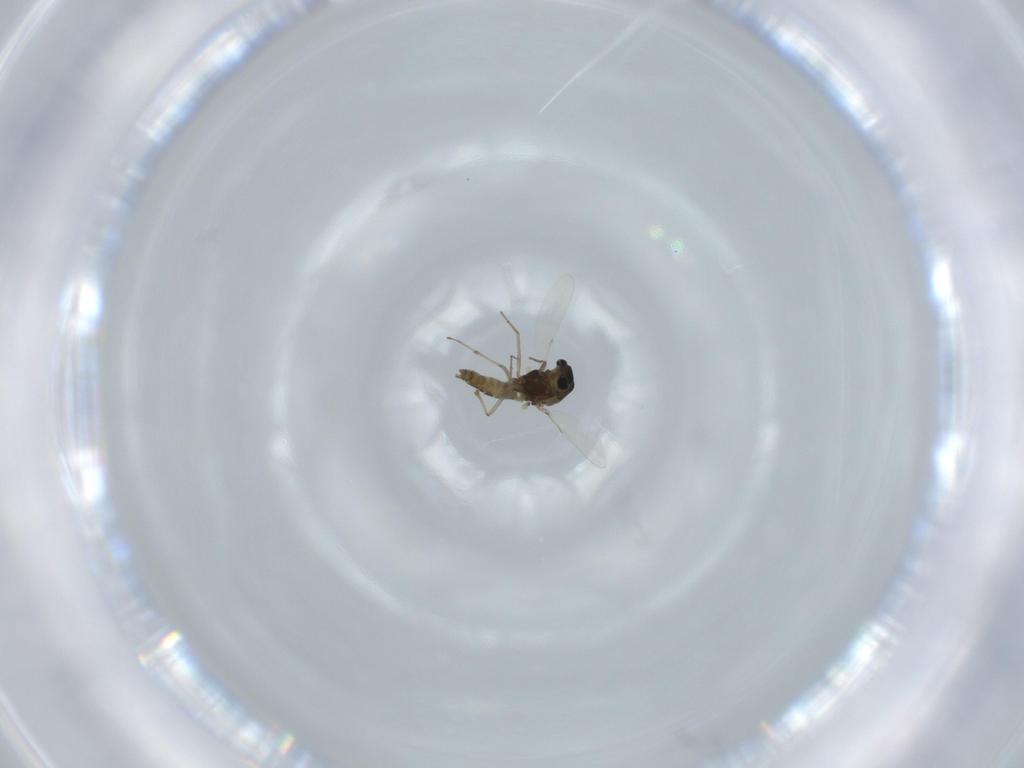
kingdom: Animalia
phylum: Arthropoda
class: Insecta
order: Diptera
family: Chironomidae
